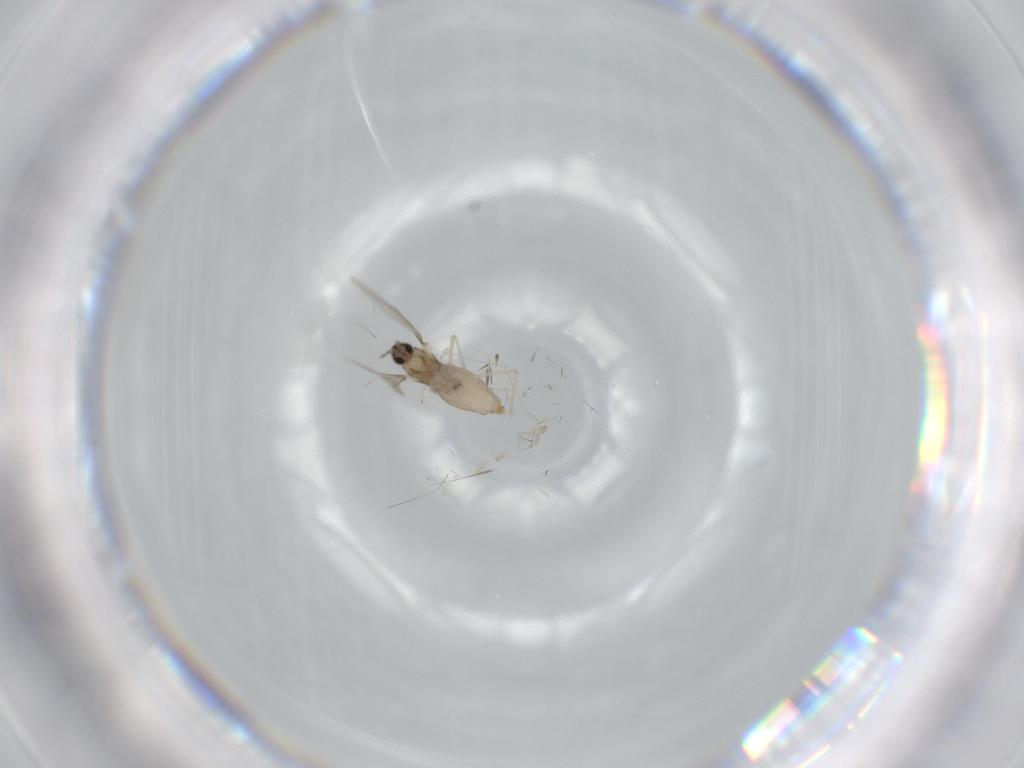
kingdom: Animalia
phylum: Arthropoda
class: Insecta
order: Diptera
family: Cecidomyiidae
